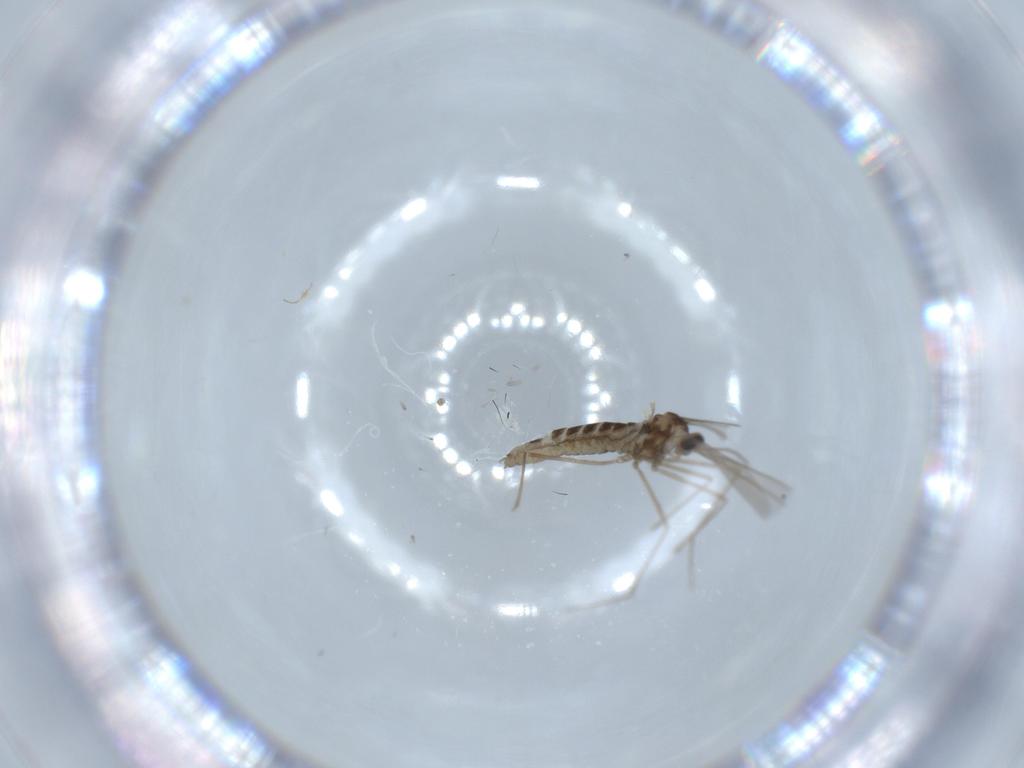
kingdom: Animalia
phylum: Arthropoda
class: Insecta
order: Diptera
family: Cecidomyiidae
